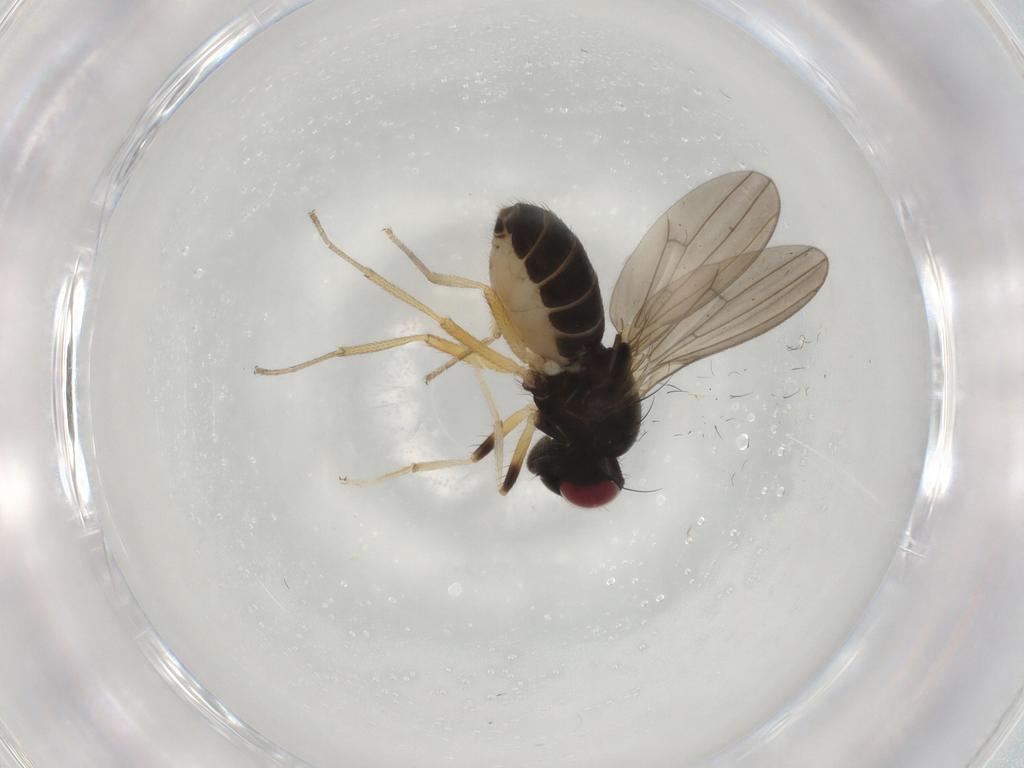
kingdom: Animalia
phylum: Arthropoda
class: Insecta
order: Diptera
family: Lauxaniidae
